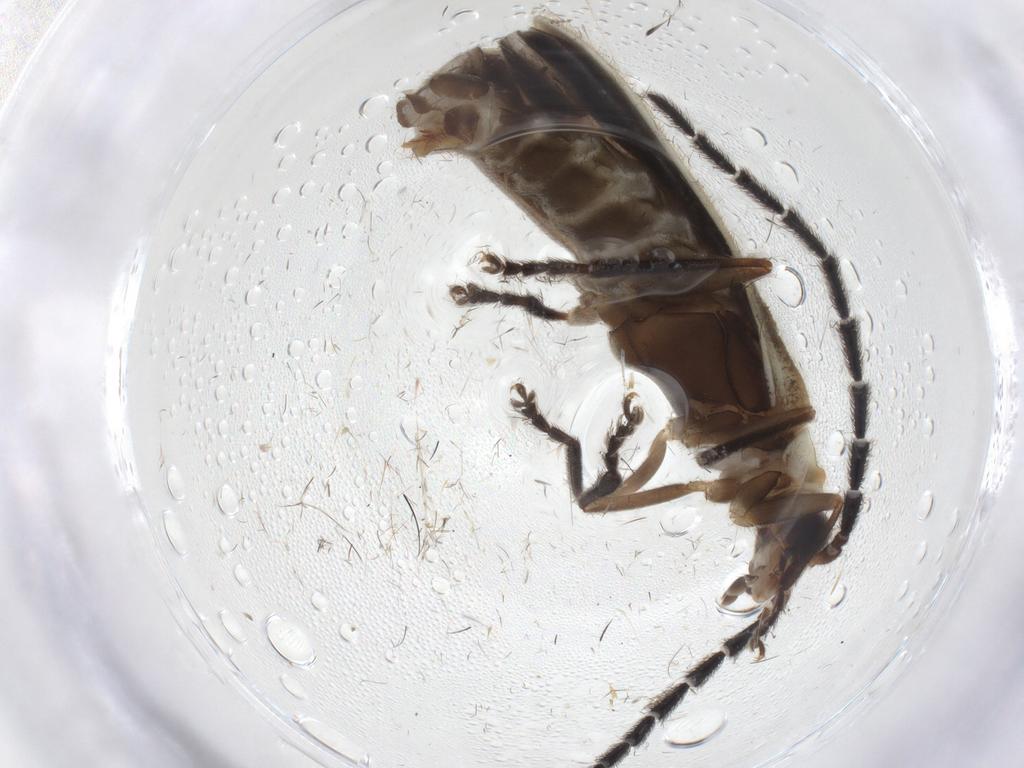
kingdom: Animalia
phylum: Arthropoda
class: Insecta
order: Coleoptera
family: Cantharidae
